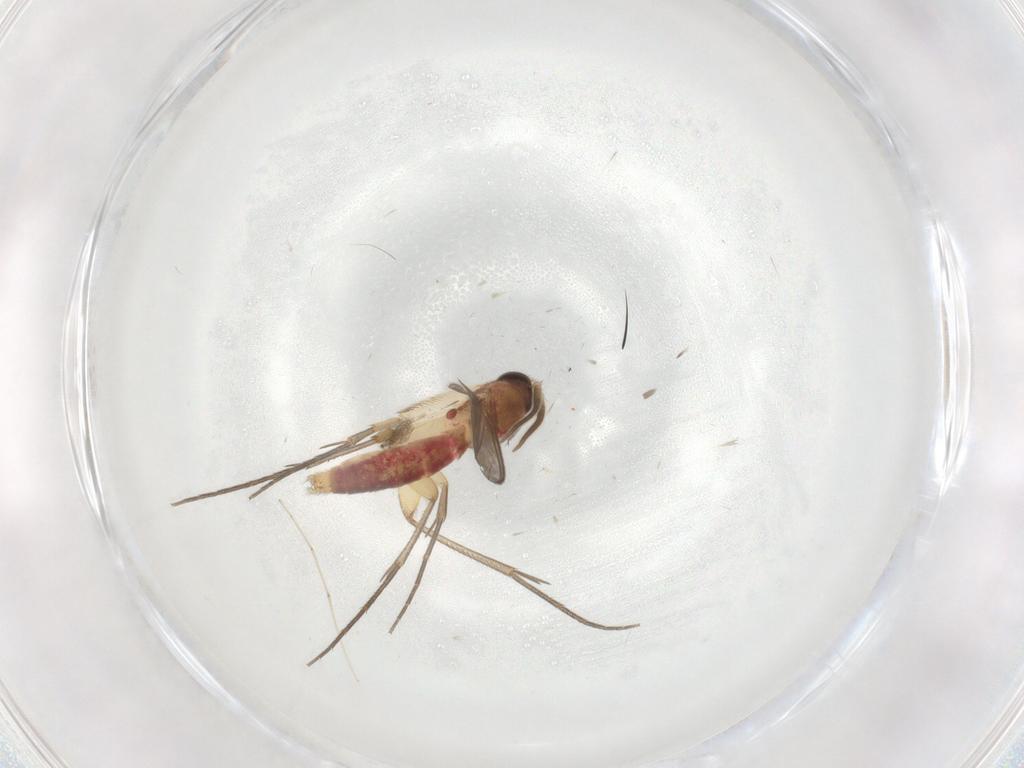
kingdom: Animalia
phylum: Arthropoda
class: Insecta
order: Diptera
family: Mycetophilidae
